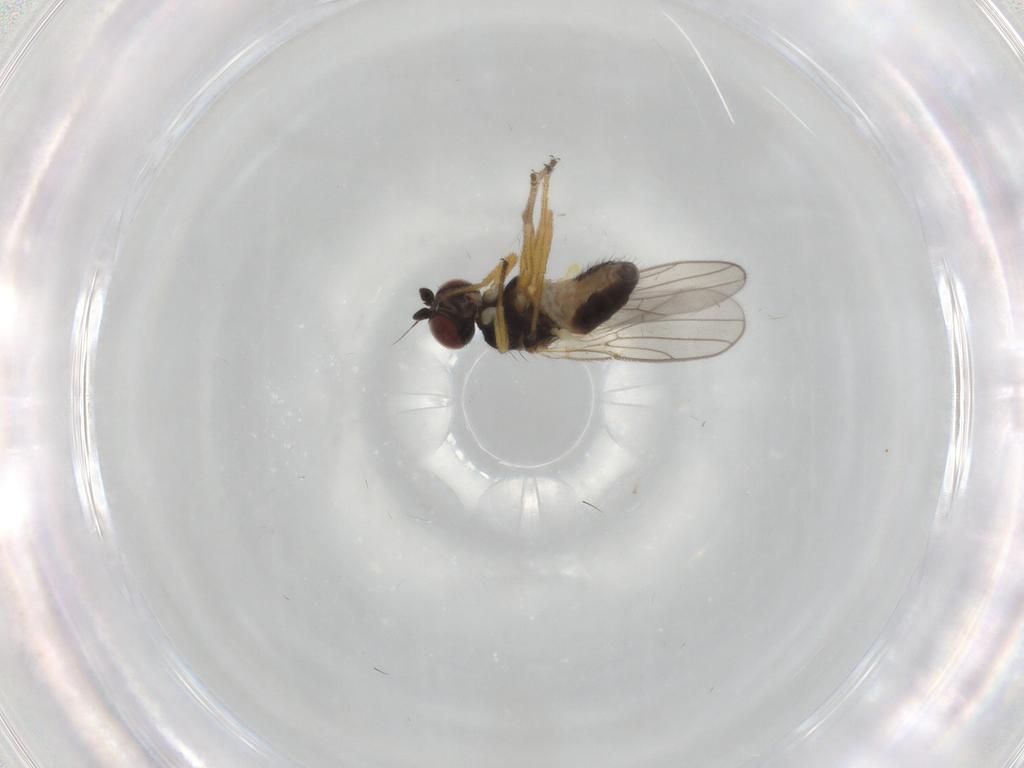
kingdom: Animalia
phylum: Arthropoda
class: Insecta
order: Diptera
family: Chloropidae
